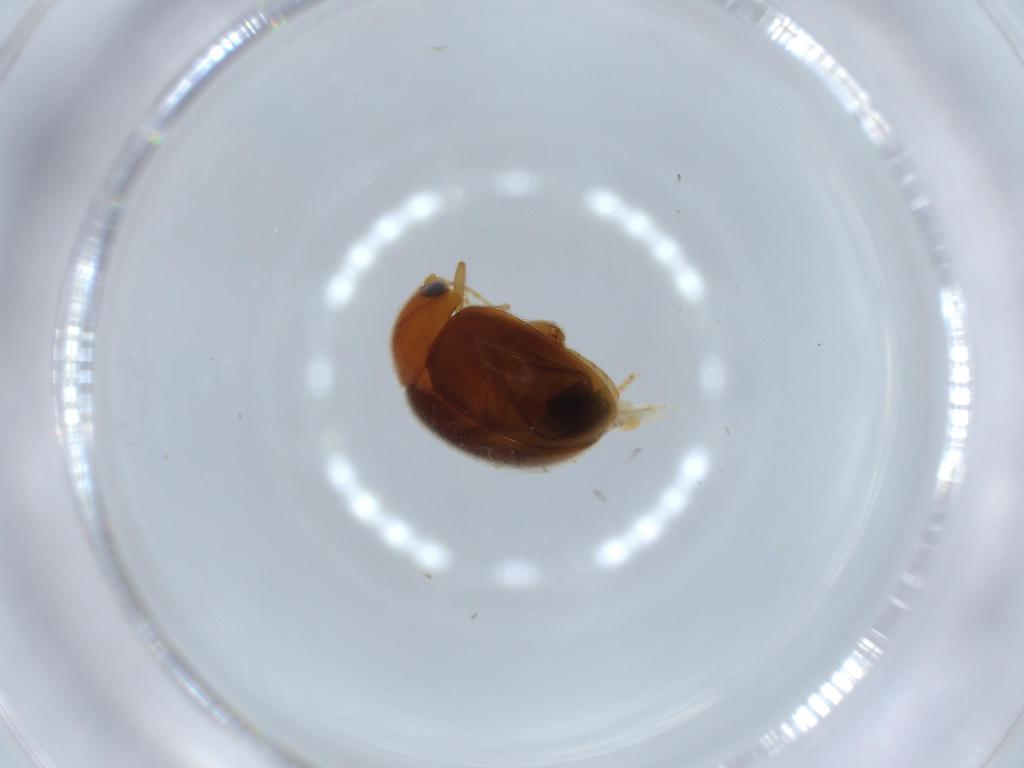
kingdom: Animalia
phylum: Arthropoda
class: Insecta
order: Coleoptera
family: Scirtidae
